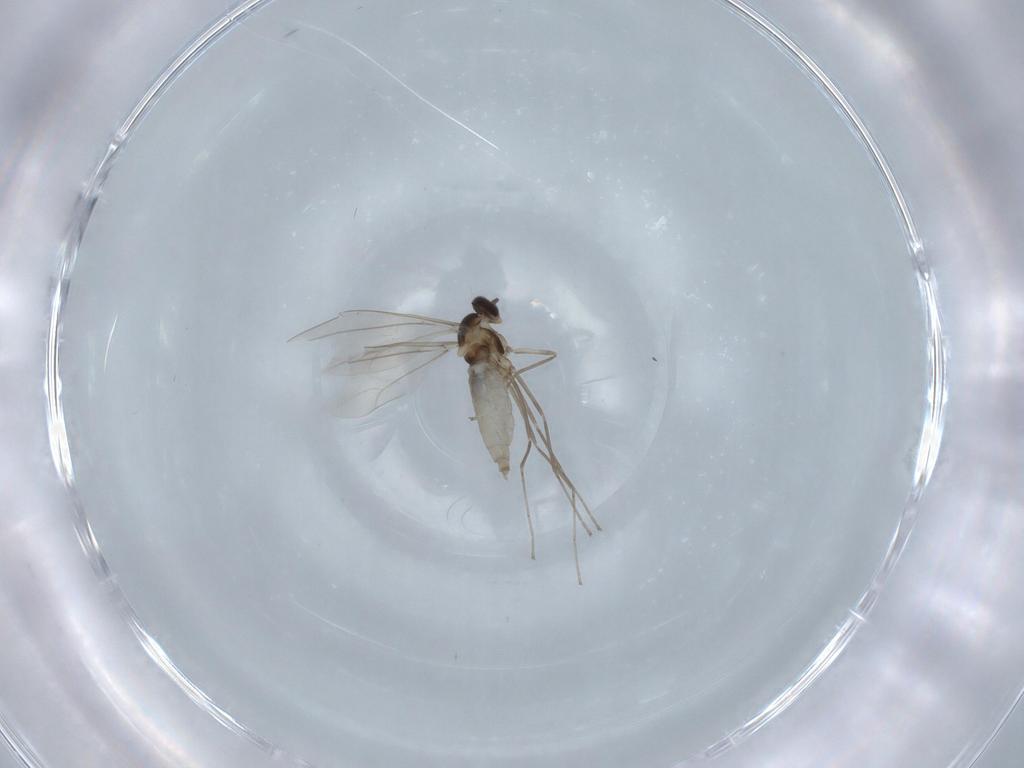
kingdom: Animalia
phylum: Arthropoda
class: Insecta
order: Diptera
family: Cecidomyiidae
